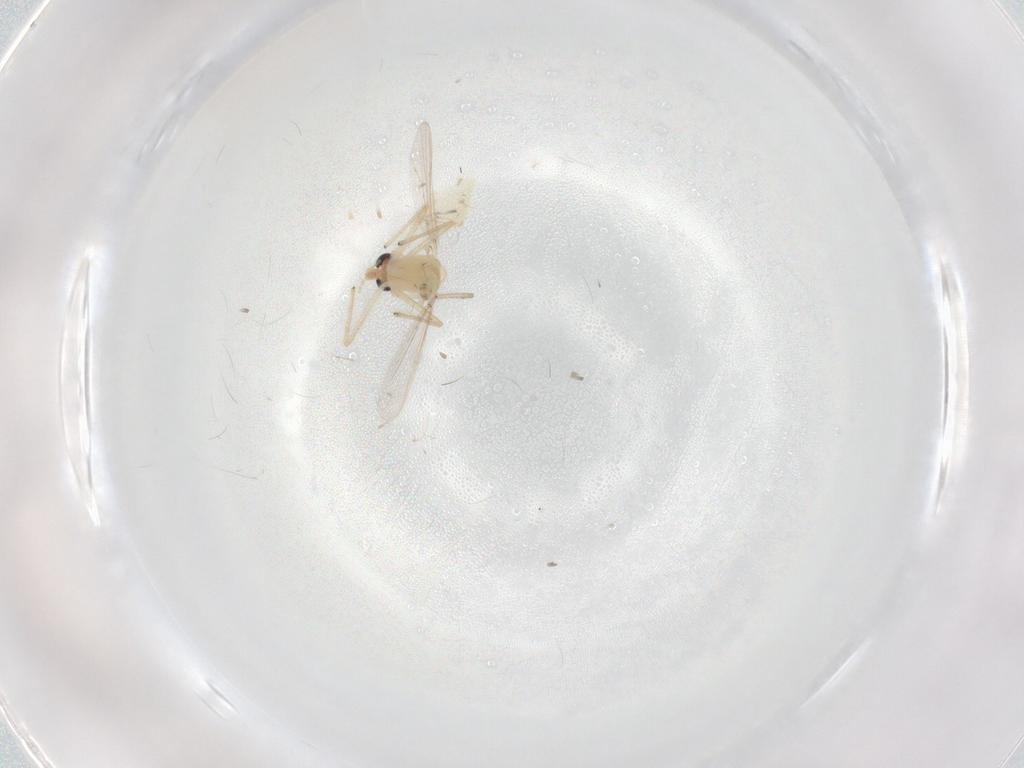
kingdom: Animalia
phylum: Arthropoda
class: Insecta
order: Diptera
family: Chironomidae
